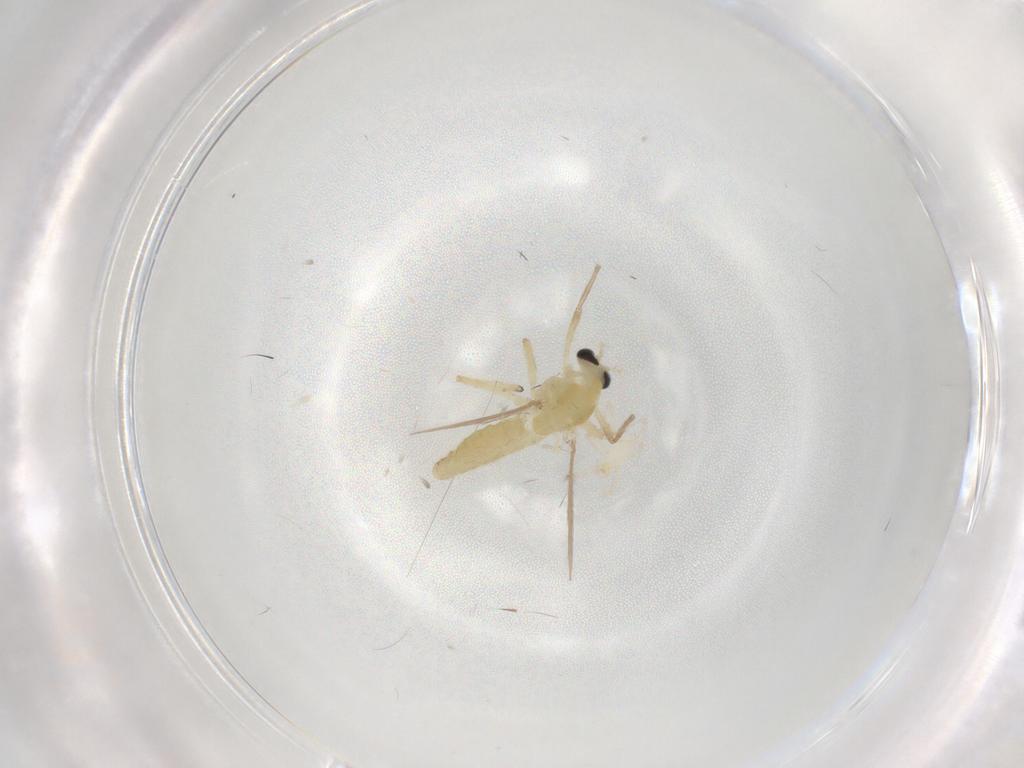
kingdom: Animalia
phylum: Arthropoda
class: Insecta
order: Diptera
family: Chironomidae
